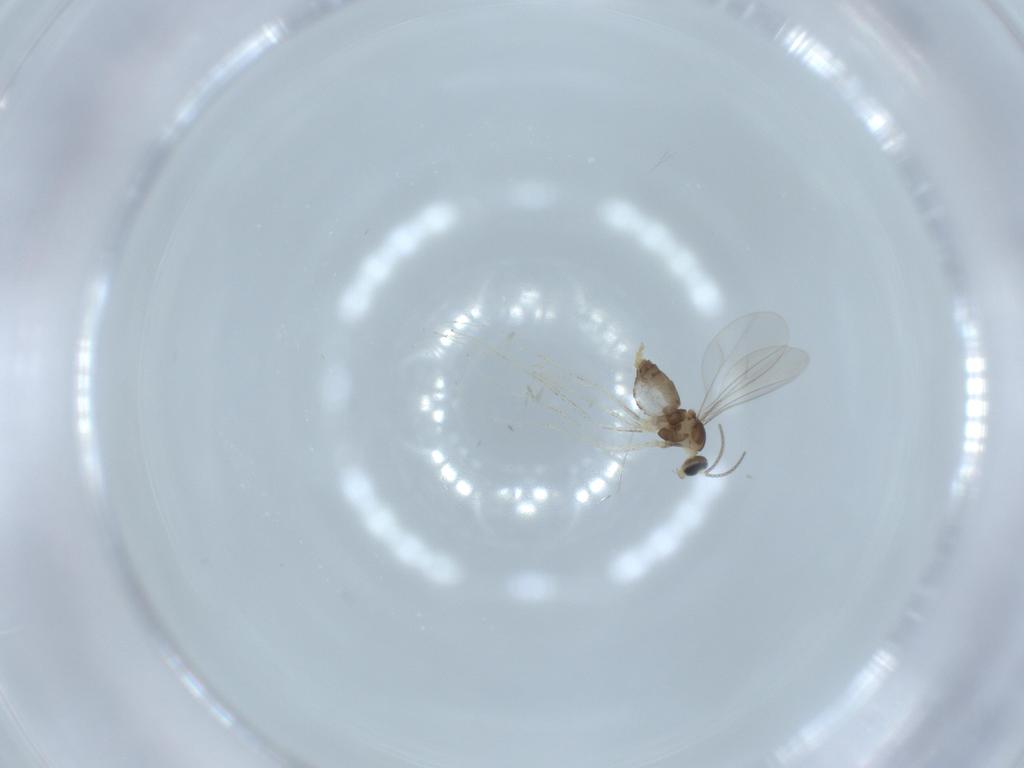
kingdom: Animalia
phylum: Arthropoda
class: Insecta
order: Diptera
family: Cecidomyiidae
